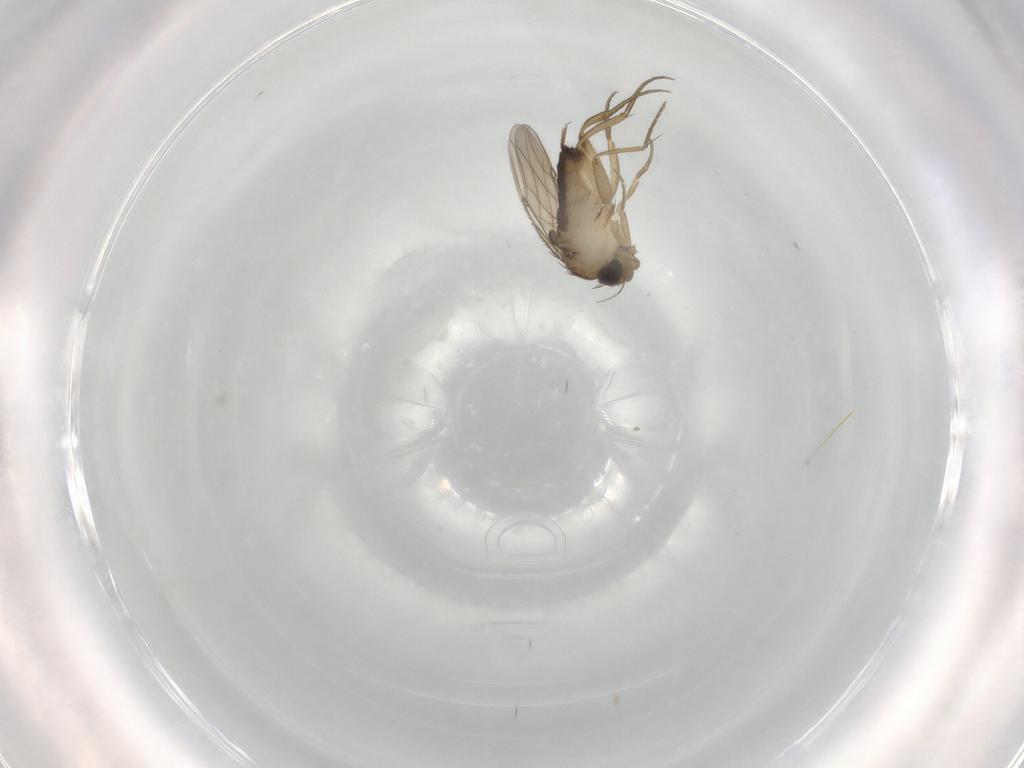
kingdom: Animalia
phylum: Arthropoda
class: Insecta
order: Diptera
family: Phoridae
